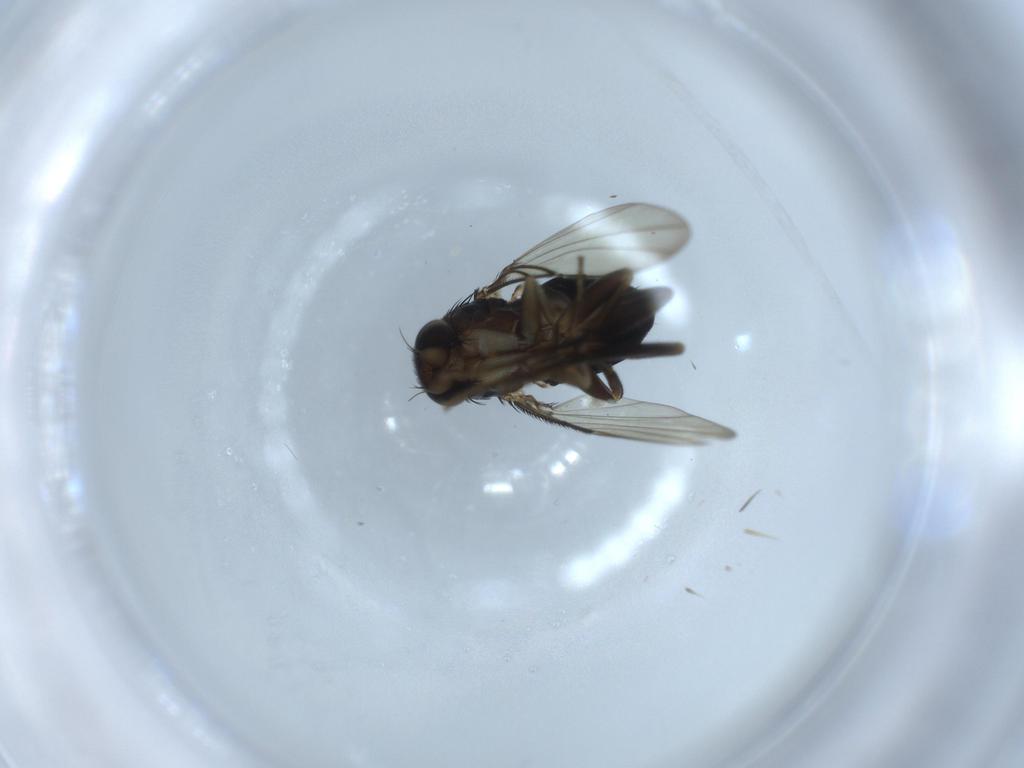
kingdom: Animalia
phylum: Arthropoda
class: Insecta
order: Diptera
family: Phoridae
